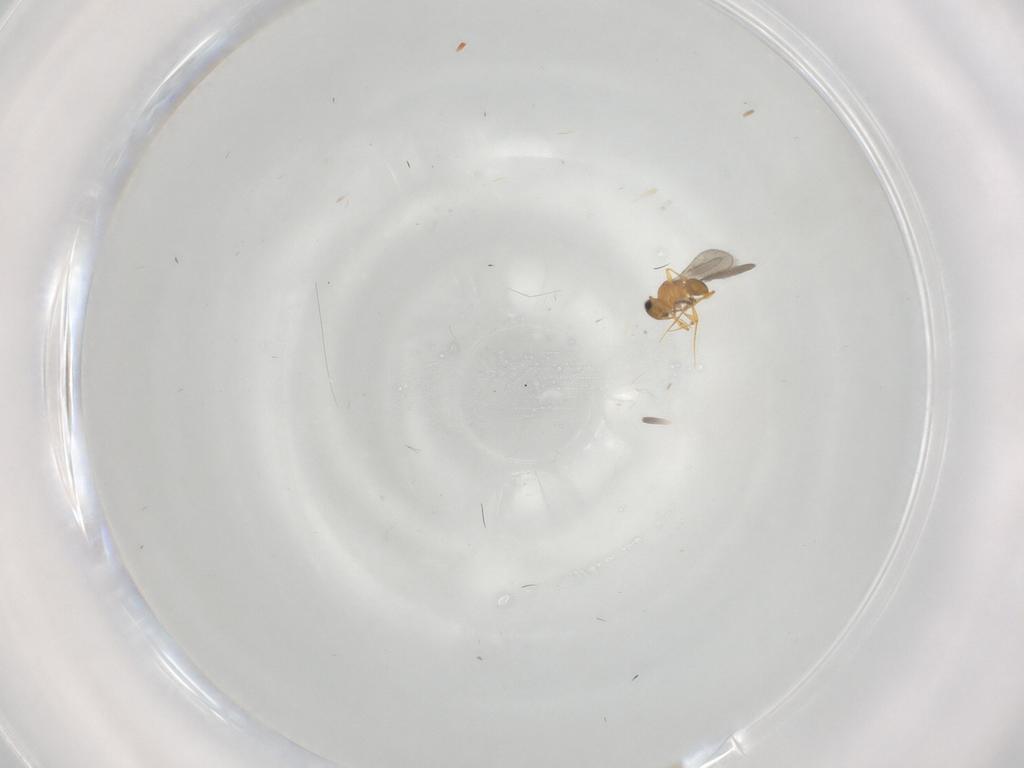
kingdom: Animalia
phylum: Arthropoda
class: Insecta
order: Hymenoptera
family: Platygastridae
